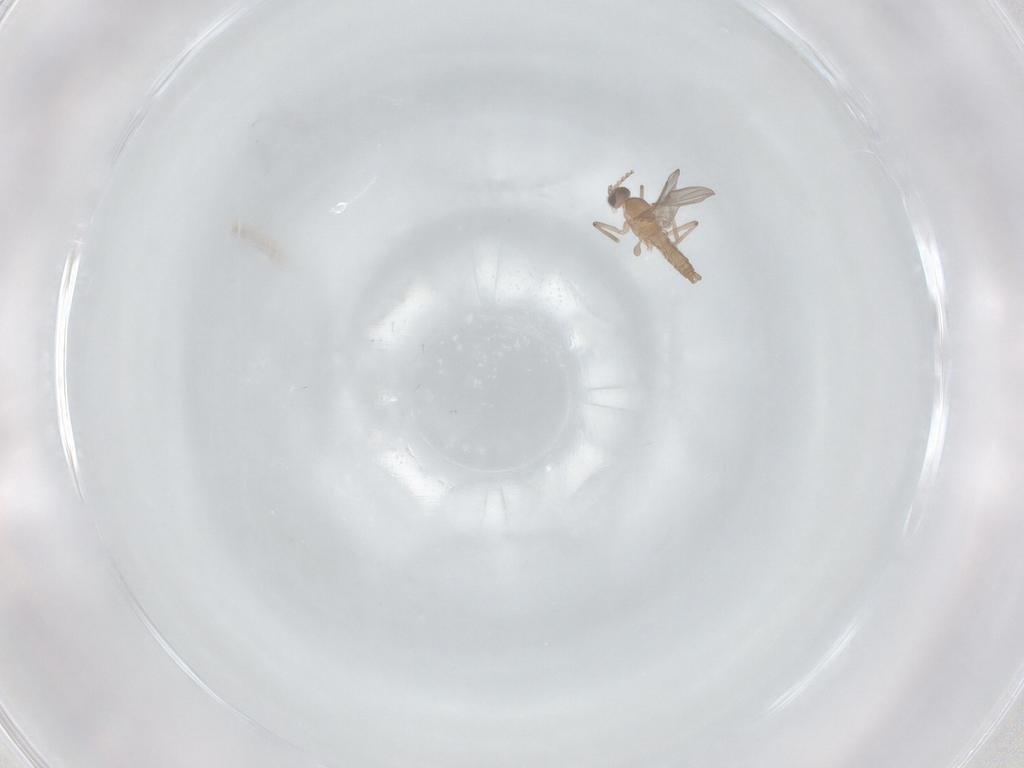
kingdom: Animalia
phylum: Arthropoda
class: Insecta
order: Diptera
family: Cecidomyiidae
